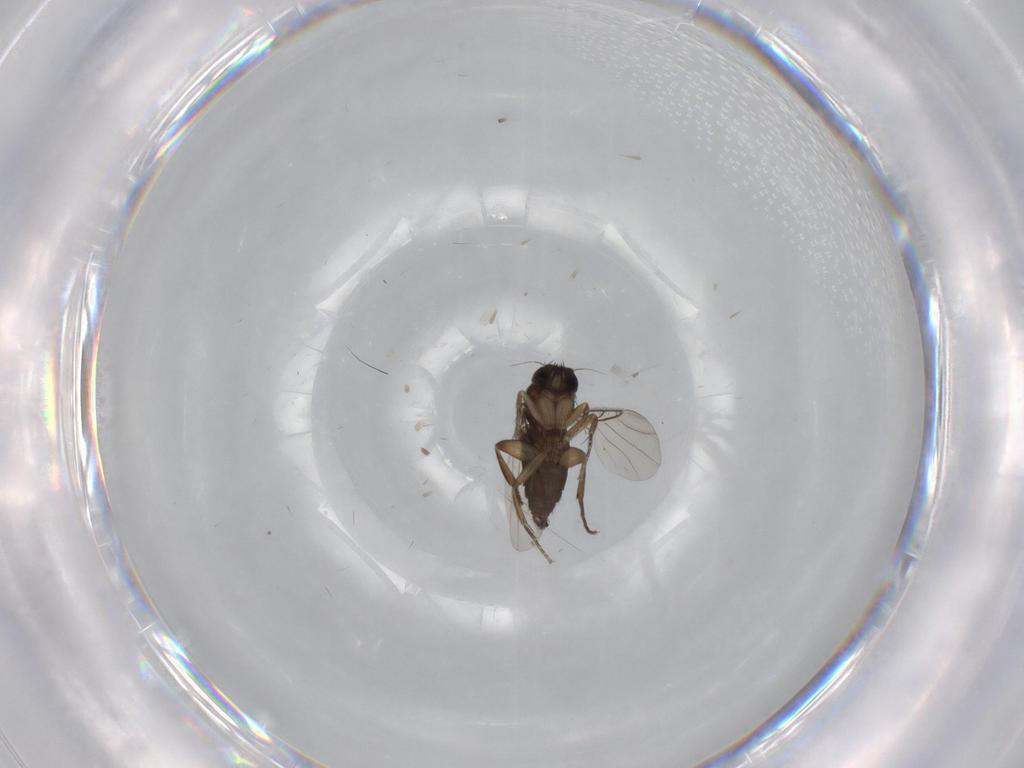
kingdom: Animalia
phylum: Arthropoda
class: Insecta
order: Diptera
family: Phoridae
